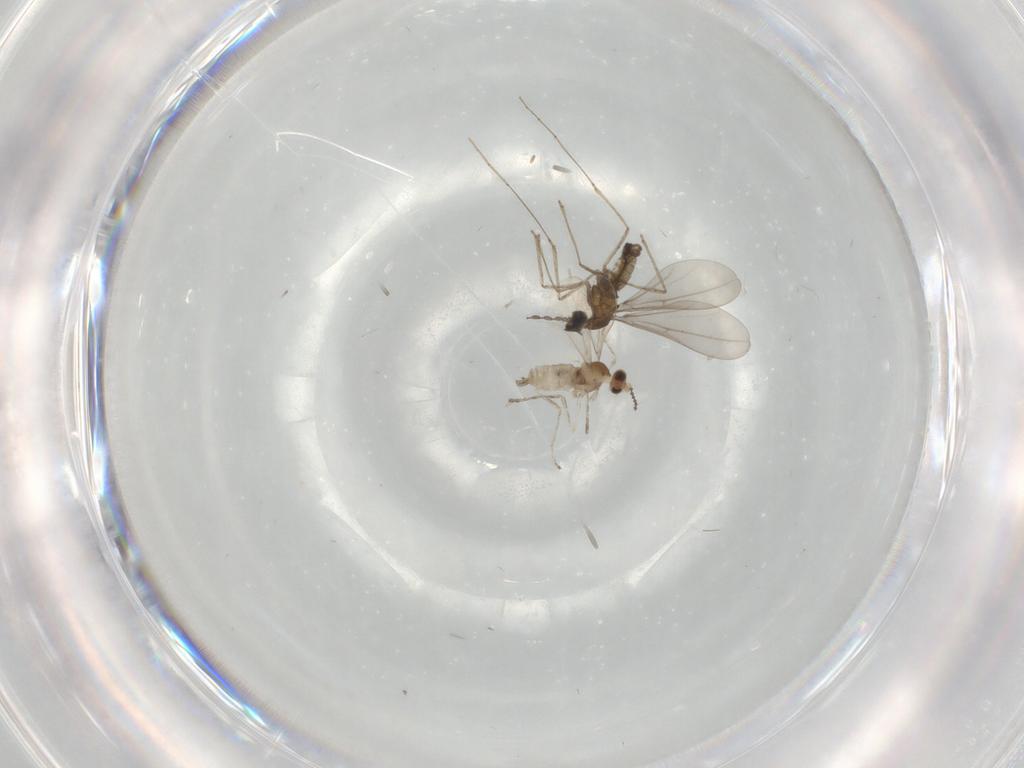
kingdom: Animalia
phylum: Arthropoda
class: Insecta
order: Diptera
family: Cecidomyiidae
